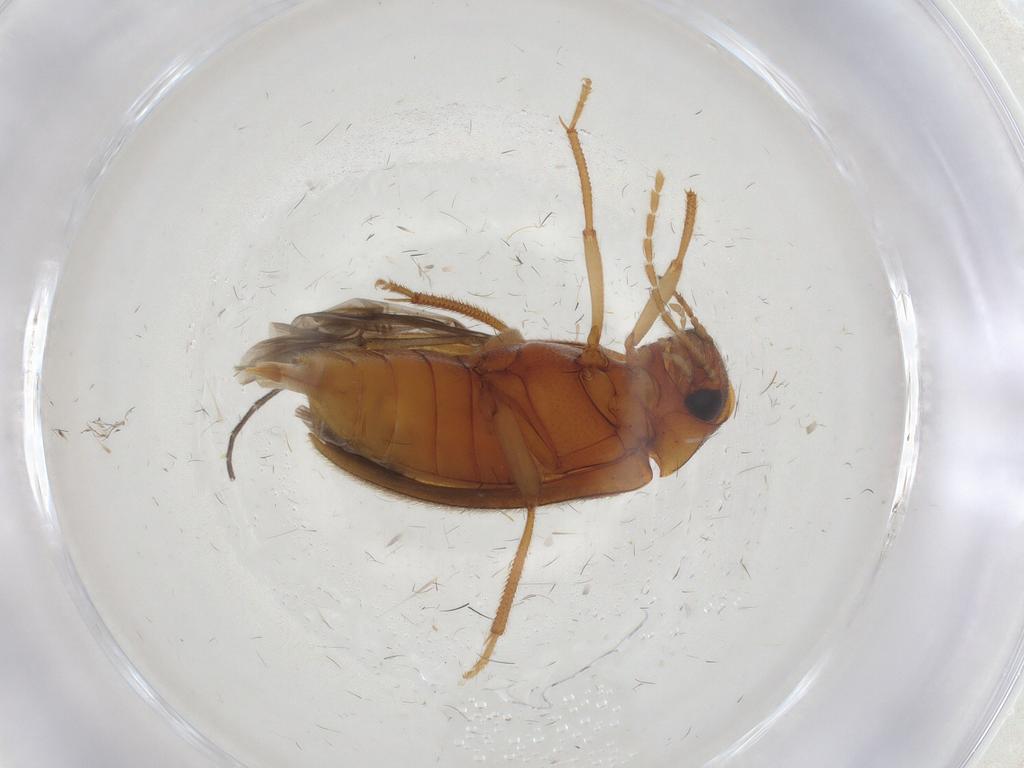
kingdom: Animalia
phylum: Arthropoda
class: Insecta
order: Coleoptera
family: Ptilodactylidae
